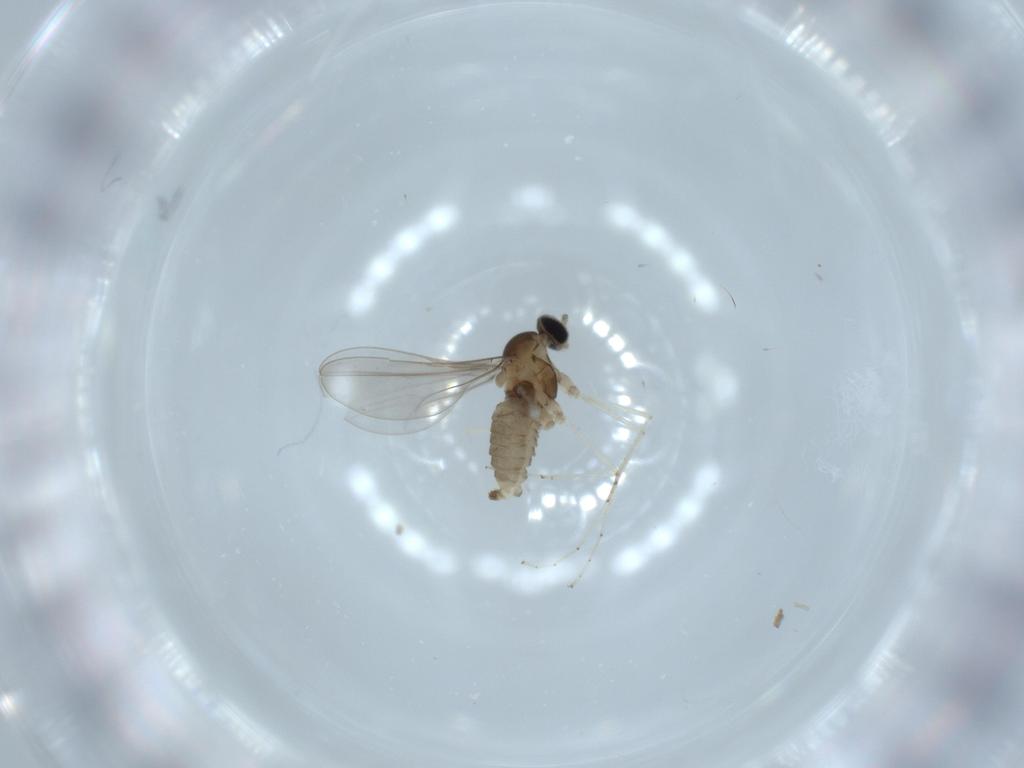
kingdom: Animalia
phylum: Arthropoda
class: Insecta
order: Diptera
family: Cecidomyiidae
